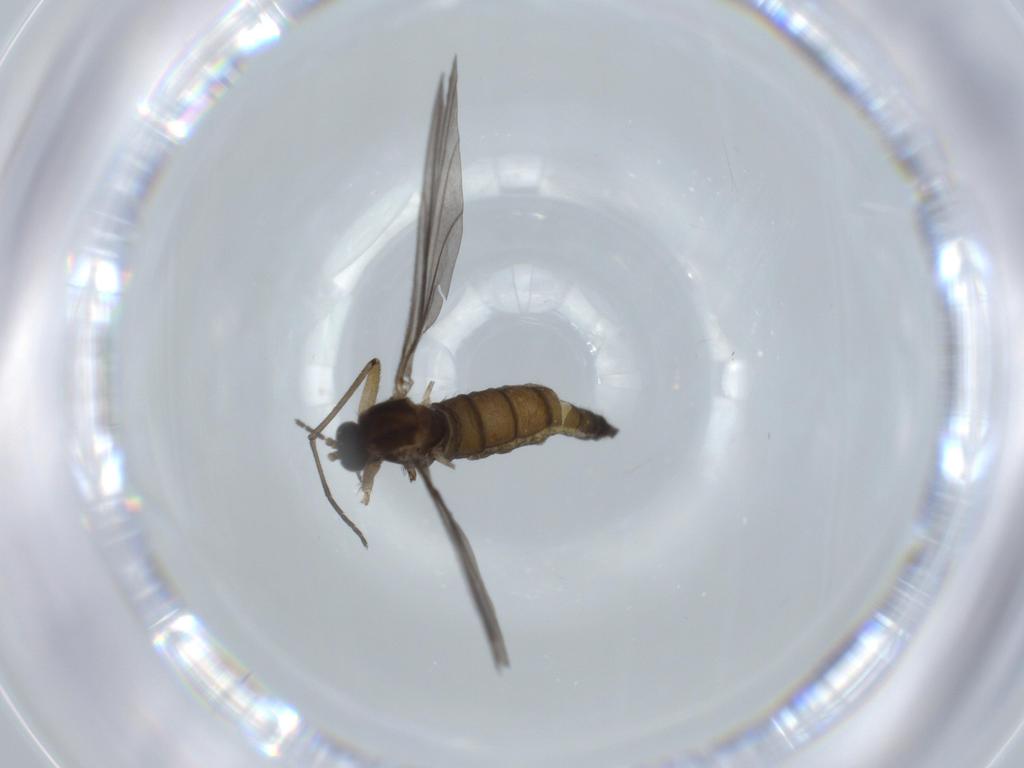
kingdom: Animalia
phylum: Arthropoda
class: Insecta
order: Diptera
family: Sciaridae
